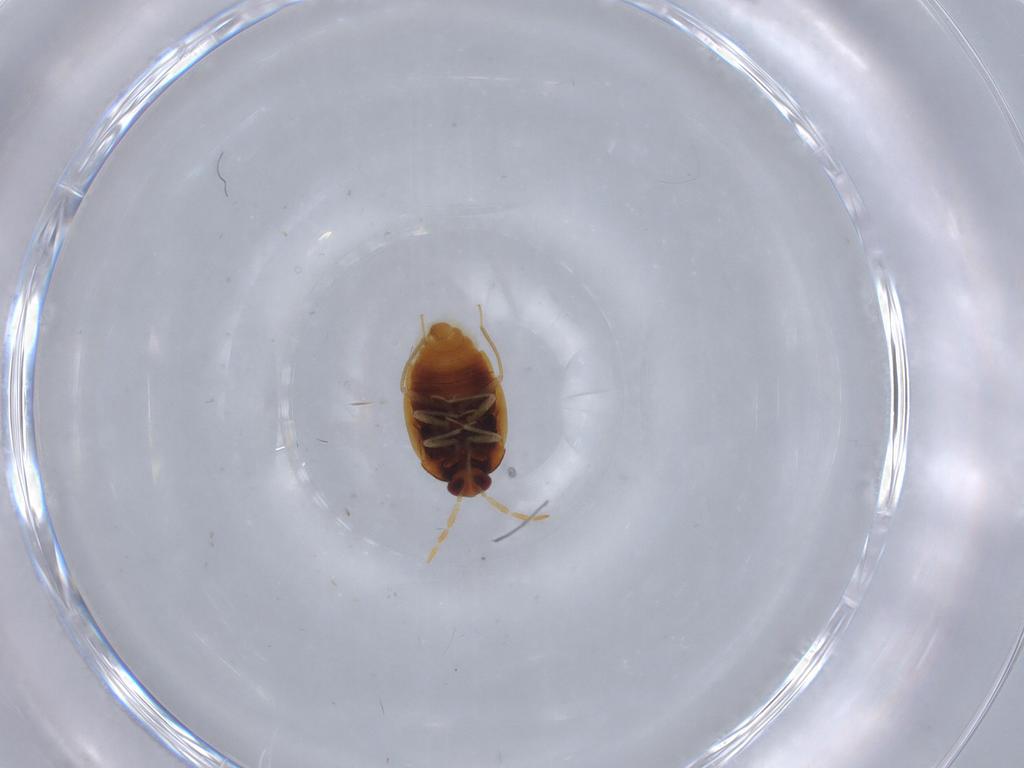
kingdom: Animalia
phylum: Arthropoda
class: Insecta
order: Hemiptera
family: Anthocoridae
